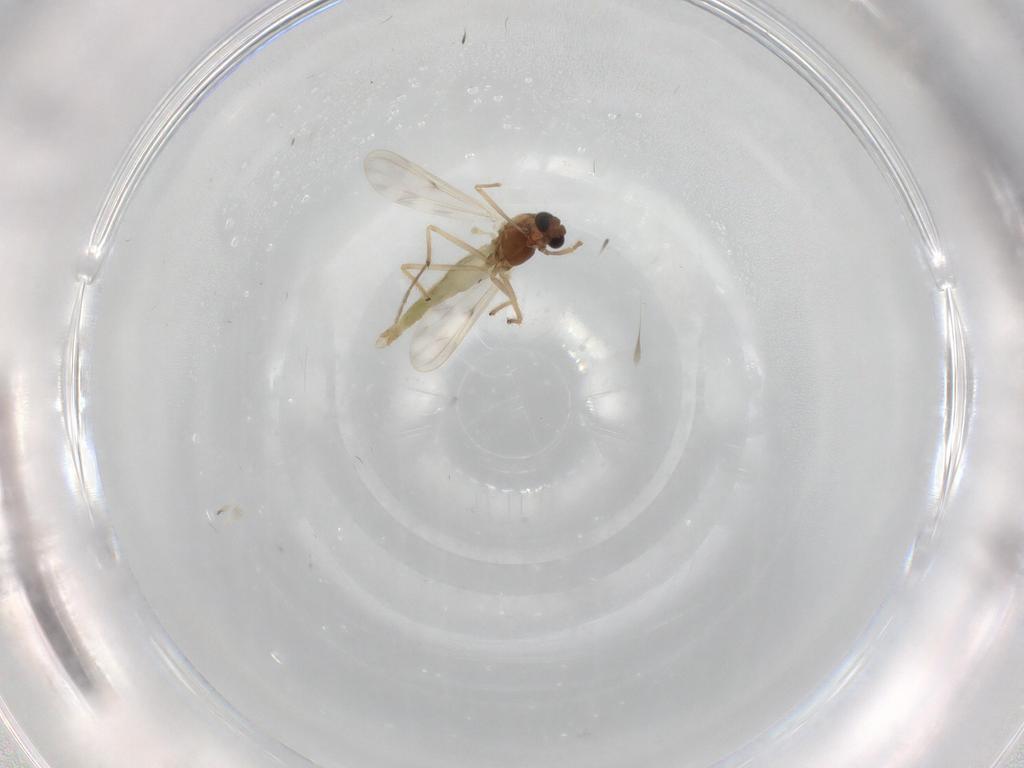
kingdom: Animalia
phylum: Arthropoda
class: Insecta
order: Diptera
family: Chironomidae
